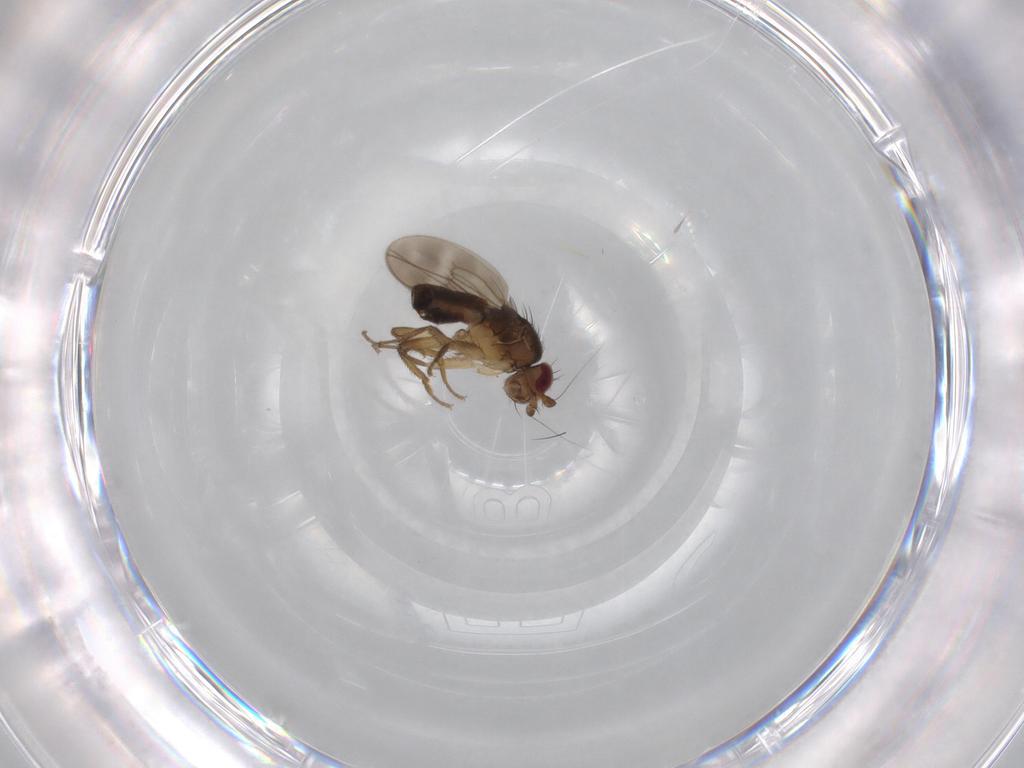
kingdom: Animalia
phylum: Arthropoda
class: Insecta
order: Diptera
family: Sphaeroceridae
